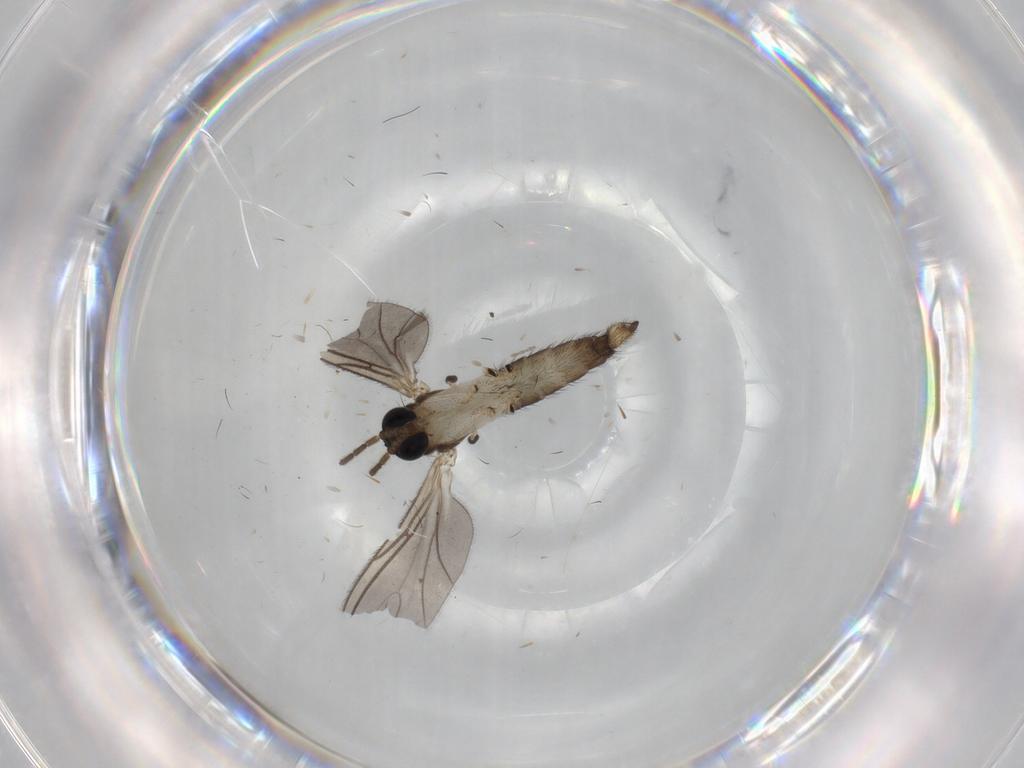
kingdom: Animalia
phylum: Arthropoda
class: Insecta
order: Diptera
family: Sciaridae
